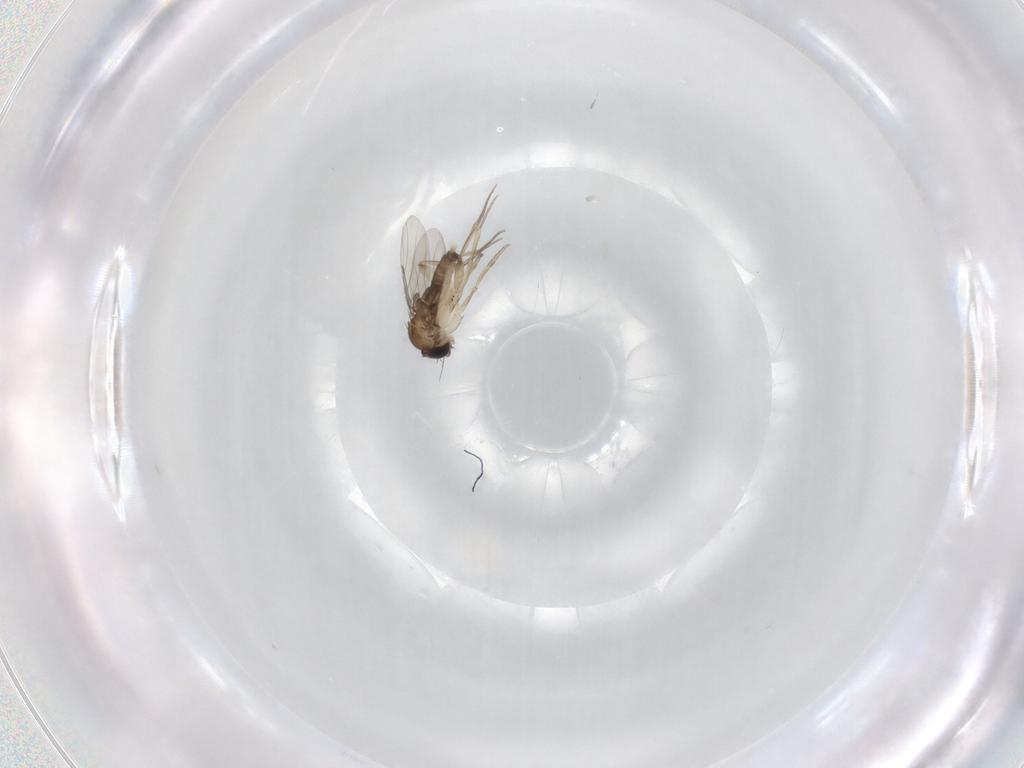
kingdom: Animalia
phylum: Arthropoda
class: Insecta
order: Diptera
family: Phoridae
